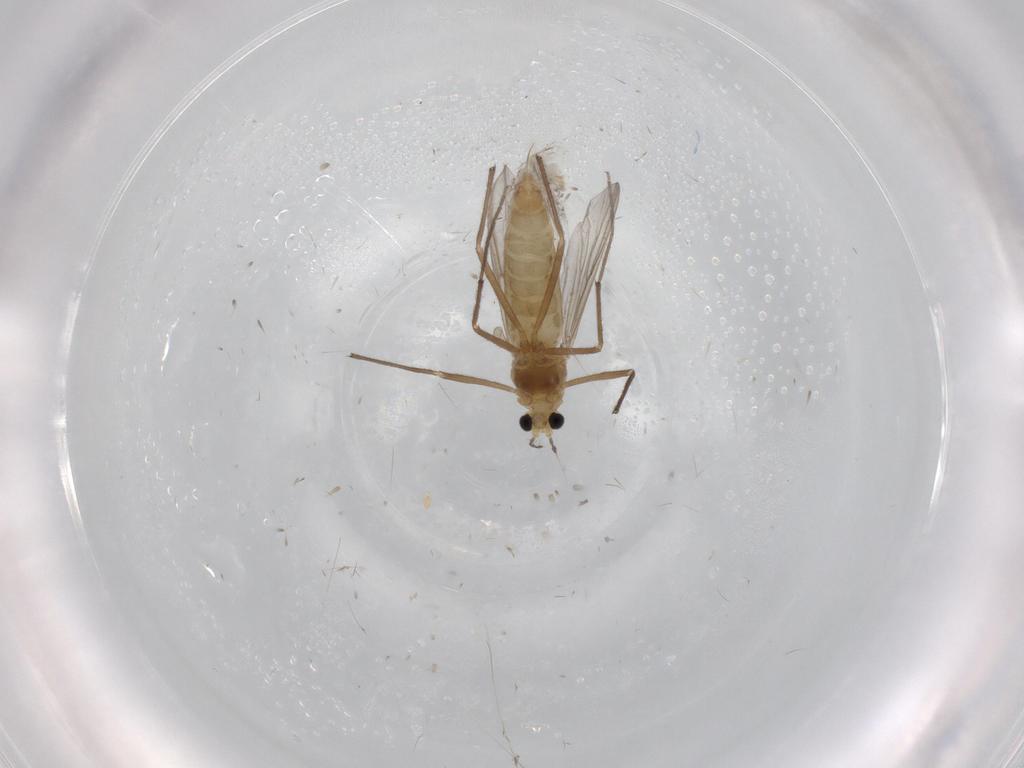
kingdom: Animalia
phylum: Arthropoda
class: Insecta
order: Diptera
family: Chironomidae
